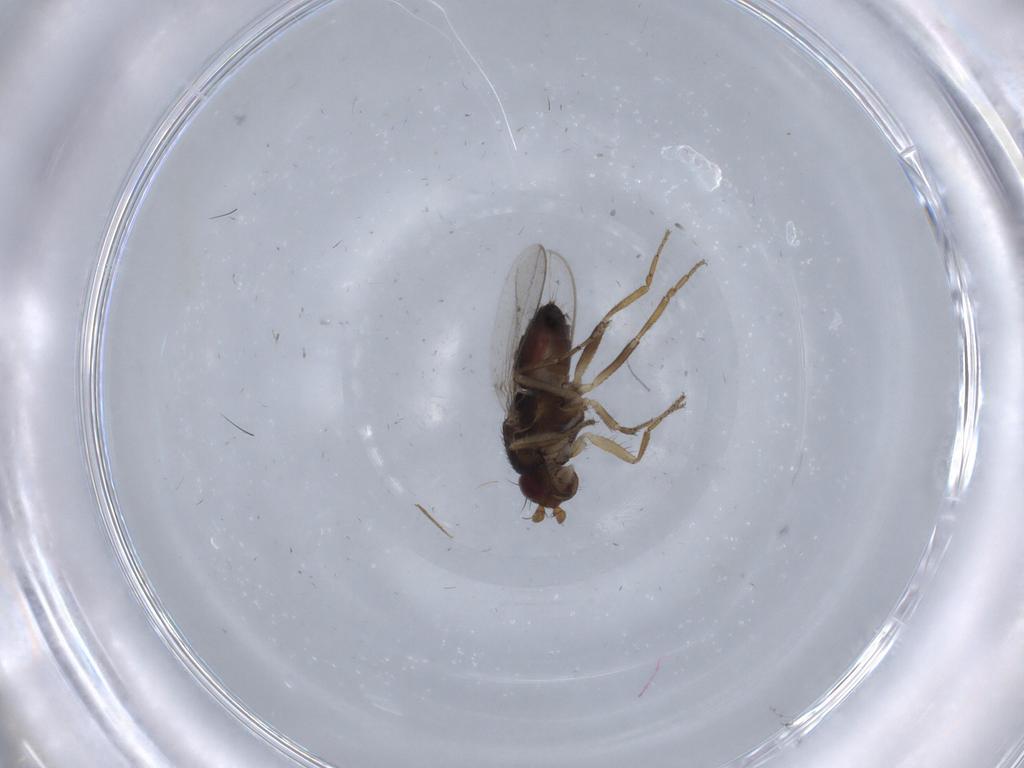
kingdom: Animalia
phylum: Arthropoda
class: Insecta
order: Diptera
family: Sphaeroceridae
